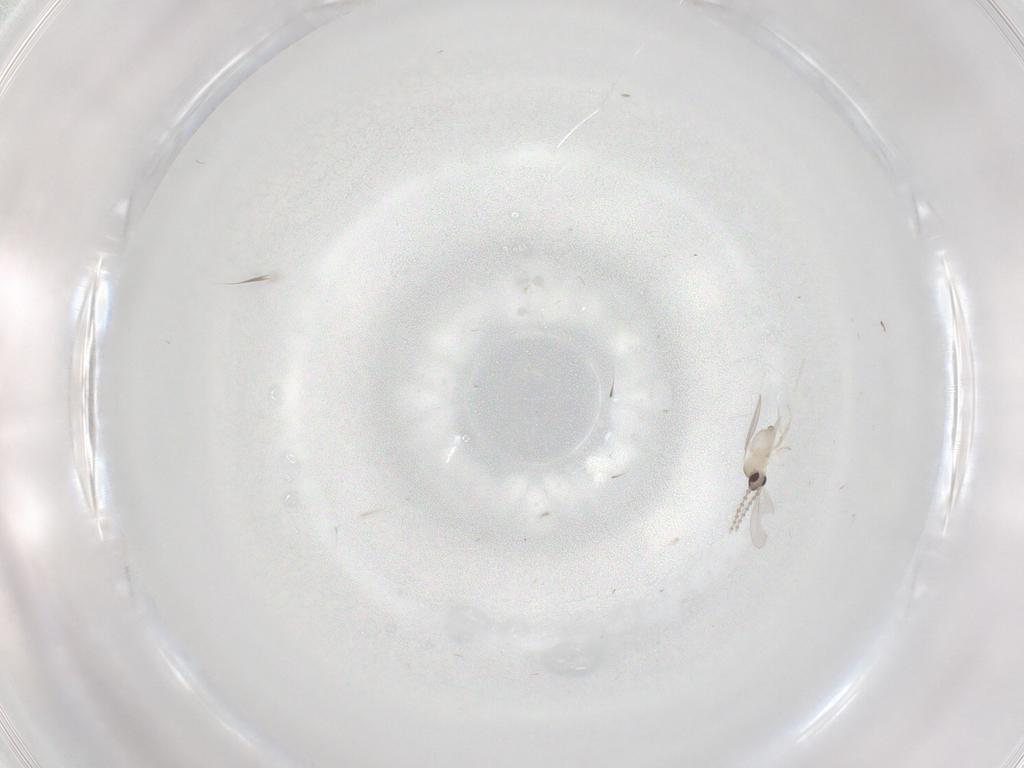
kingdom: Animalia
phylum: Arthropoda
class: Insecta
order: Diptera
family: Cecidomyiidae
